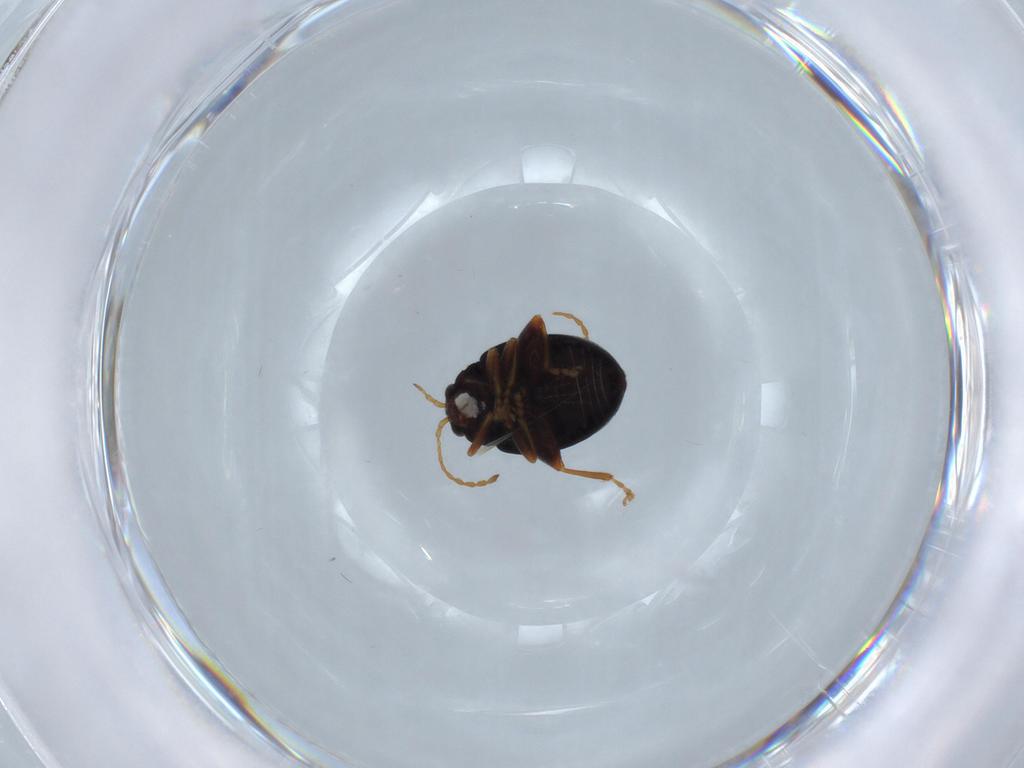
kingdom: Animalia
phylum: Arthropoda
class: Insecta
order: Coleoptera
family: Chrysomelidae
